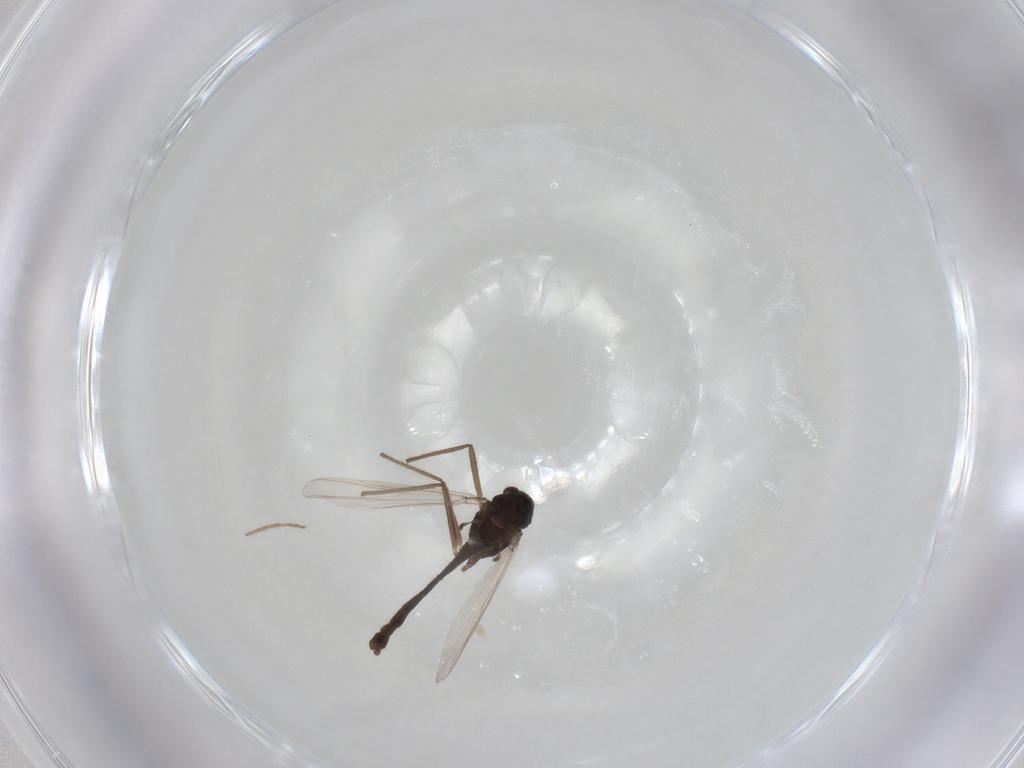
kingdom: Animalia
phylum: Arthropoda
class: Insecta
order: Diptera
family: Chironomidae
